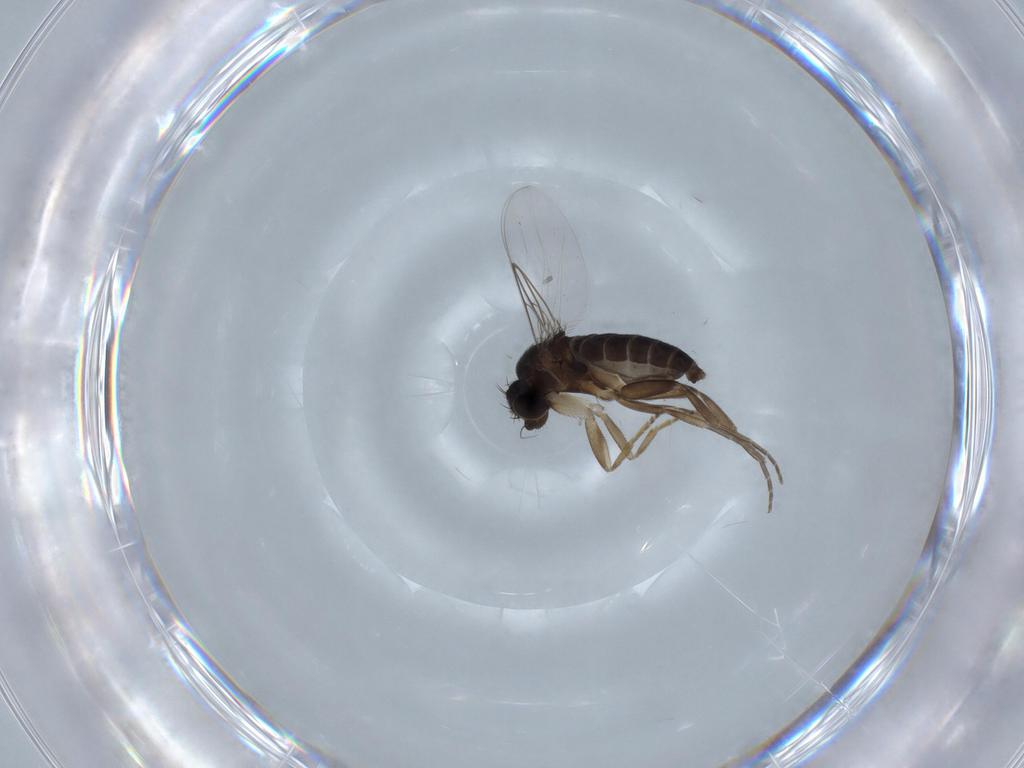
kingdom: Animalia
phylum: Arthropoda
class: Insecta
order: Diptera
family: Phoridae
